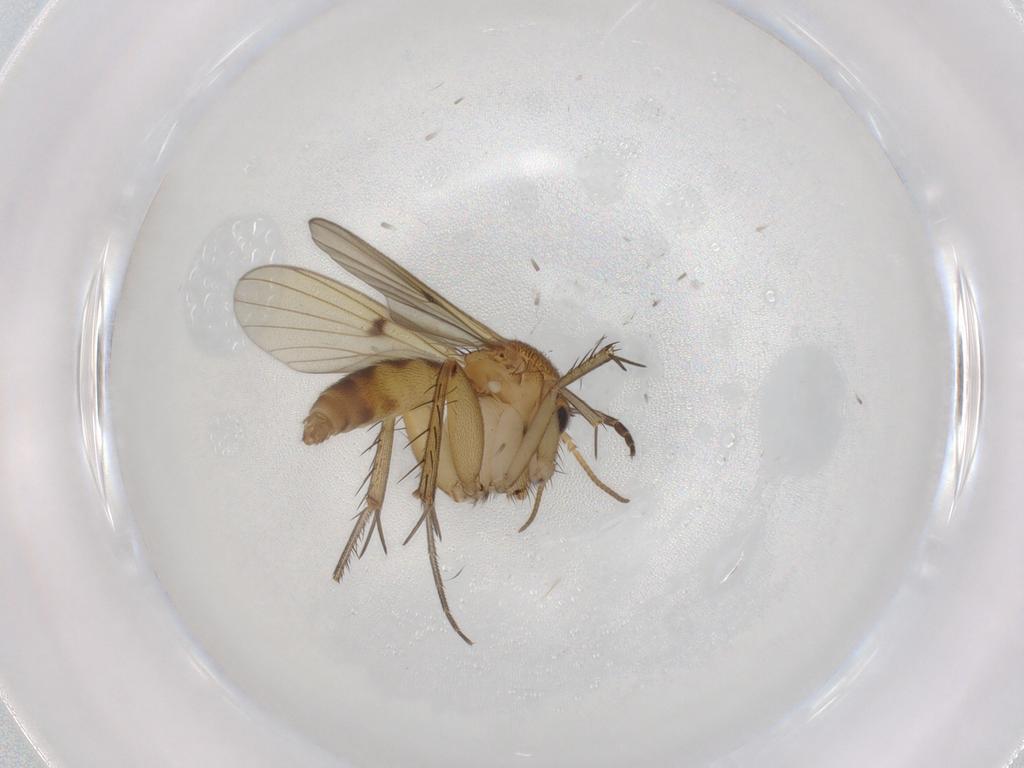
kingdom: Animalia
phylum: Arthropoda
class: Insecta
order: Diptera
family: Mycetophilidae
